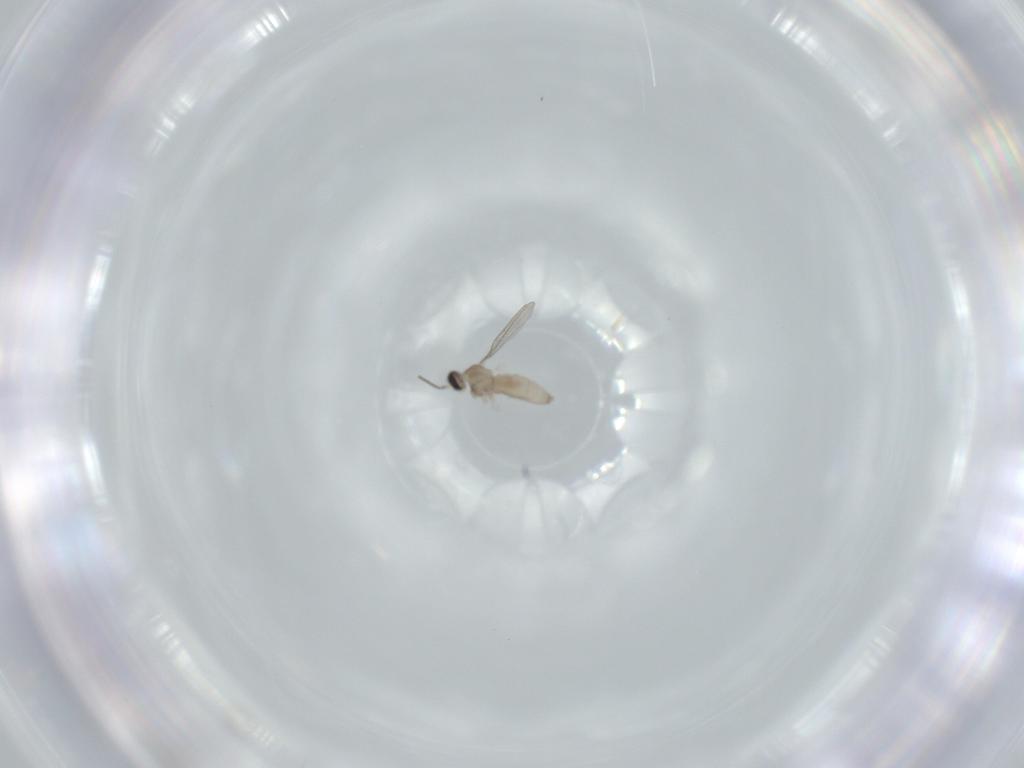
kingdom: Animalia
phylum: Arthropoda
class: Insecta
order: Diptera
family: Cecidomyiidae
